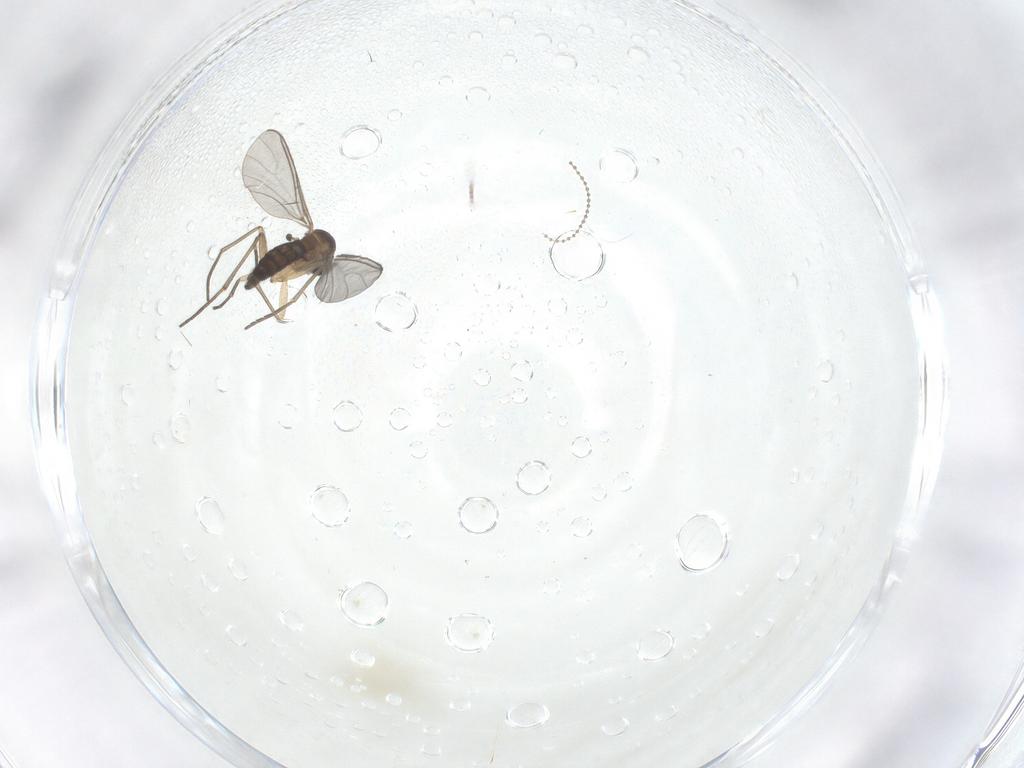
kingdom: Animalia
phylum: Arthropoda
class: Insecta
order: Diptera
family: Sciaridae
